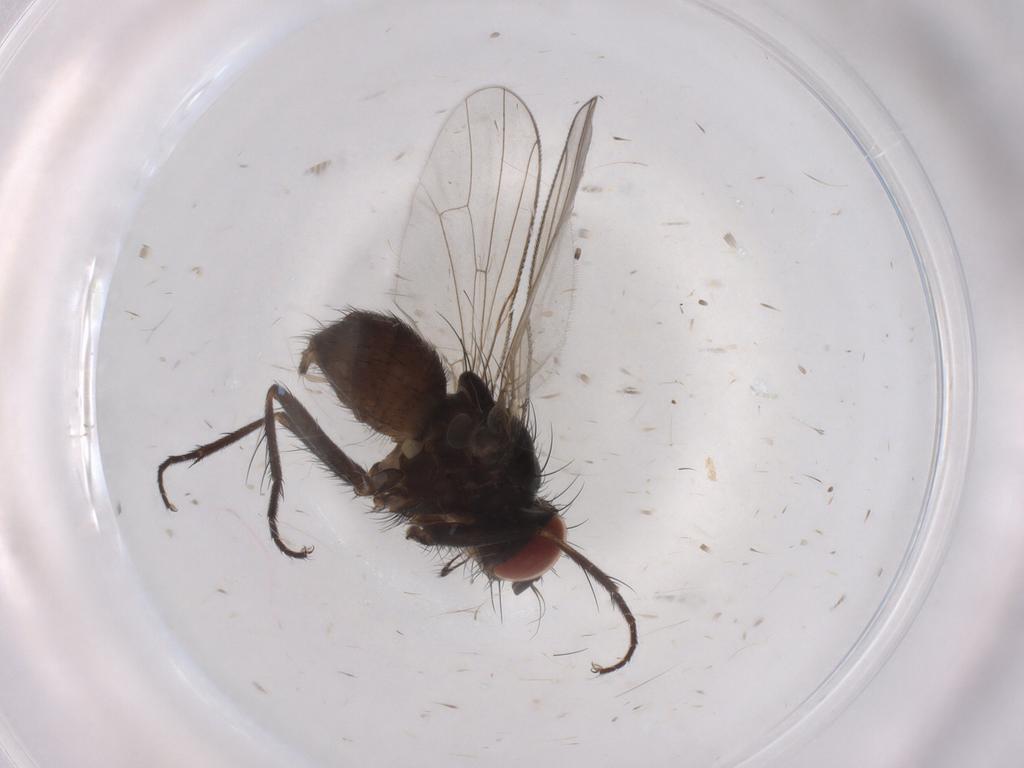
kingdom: Animalia
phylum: Arthropoda
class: Insecta
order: Diptera
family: Muscidae
